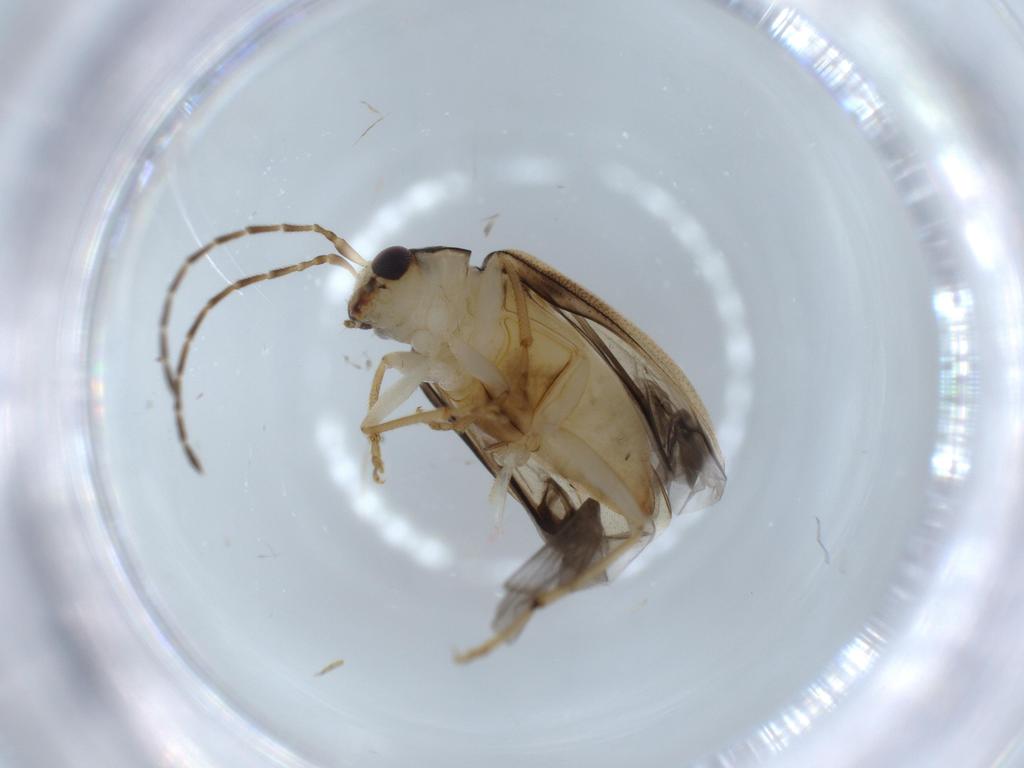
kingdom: Animalia
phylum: Arthropoda
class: Insecta
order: Coleoptera
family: Chrysomelidae
